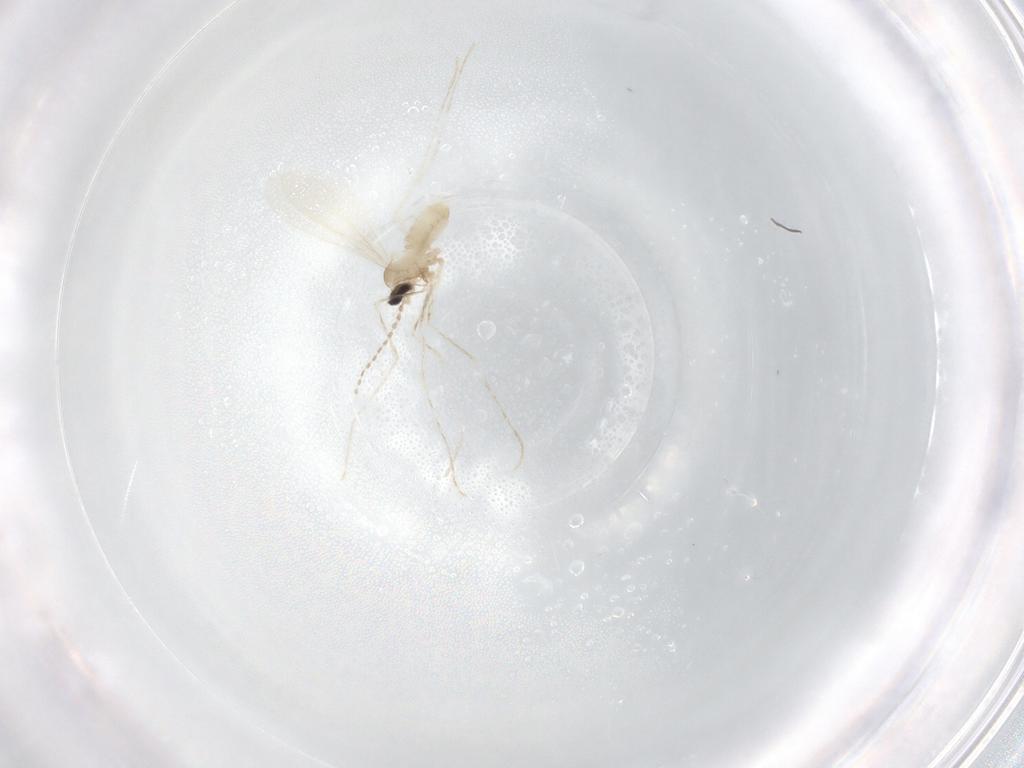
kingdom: Animalia
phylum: Arthropoda
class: Insecta
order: Diptera
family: Cecidomyiidae
